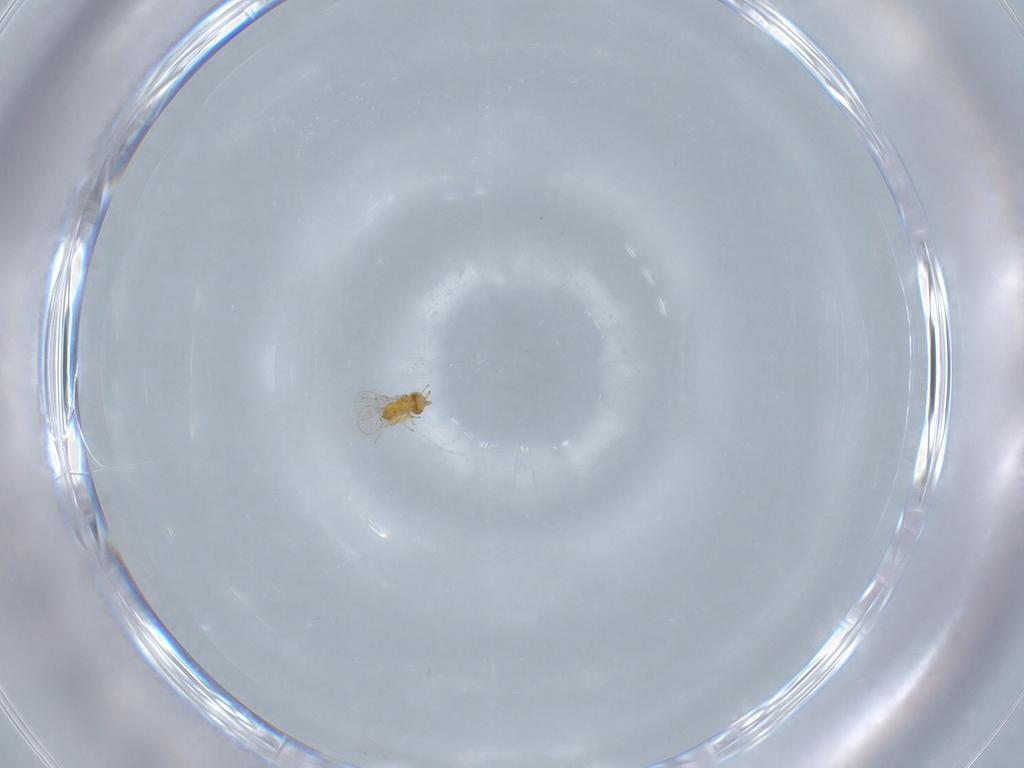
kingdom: Animalia
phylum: Arthropoda
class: Insecta
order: Hymenoptera
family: Trichogrammatidae
